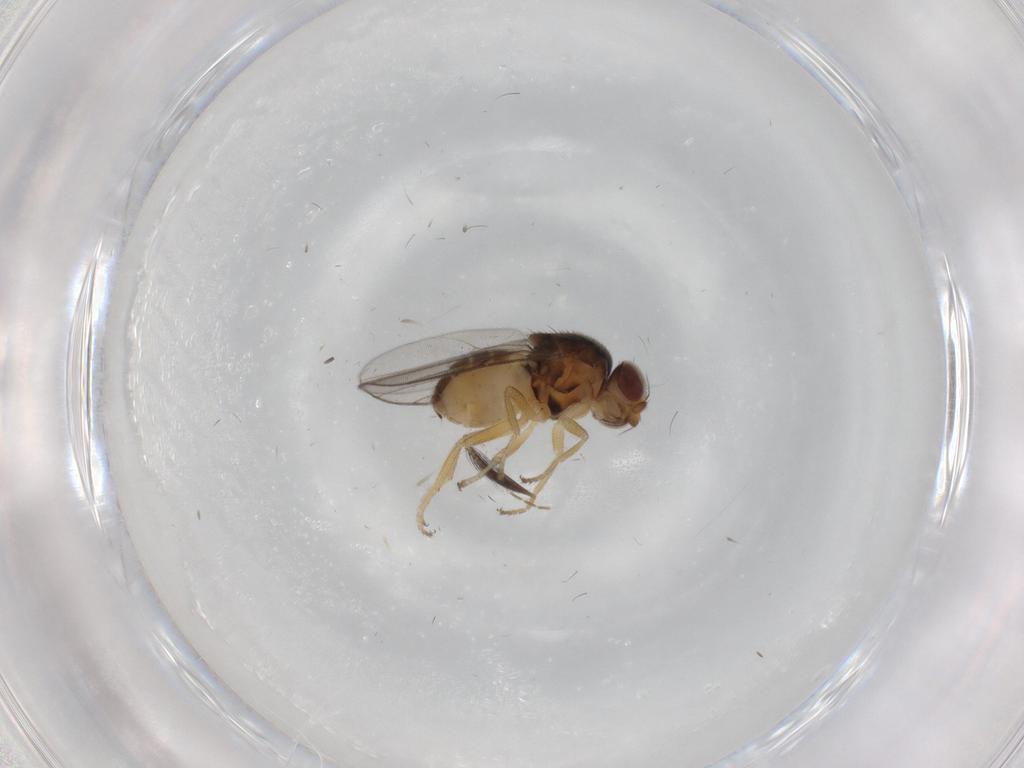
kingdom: Animalia
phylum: Arthropoda
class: Insecta
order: Diptera
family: Chloropidae
